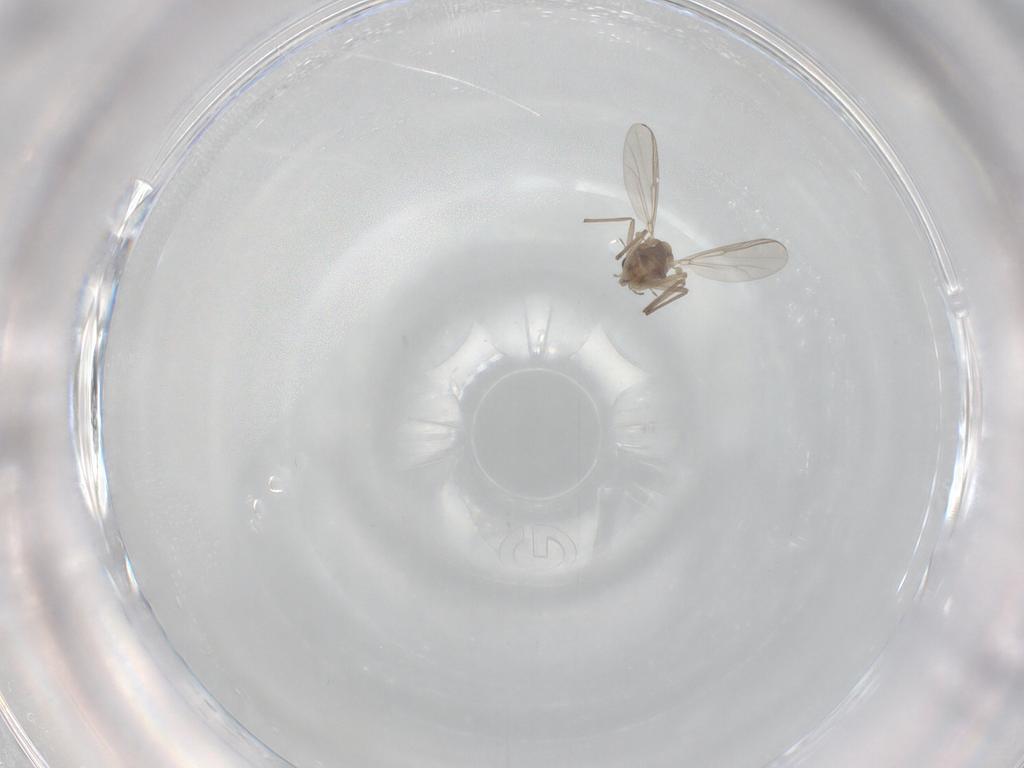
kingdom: Animalia
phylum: Arthropoda
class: Insecta
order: Diptera
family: Chironomidae
